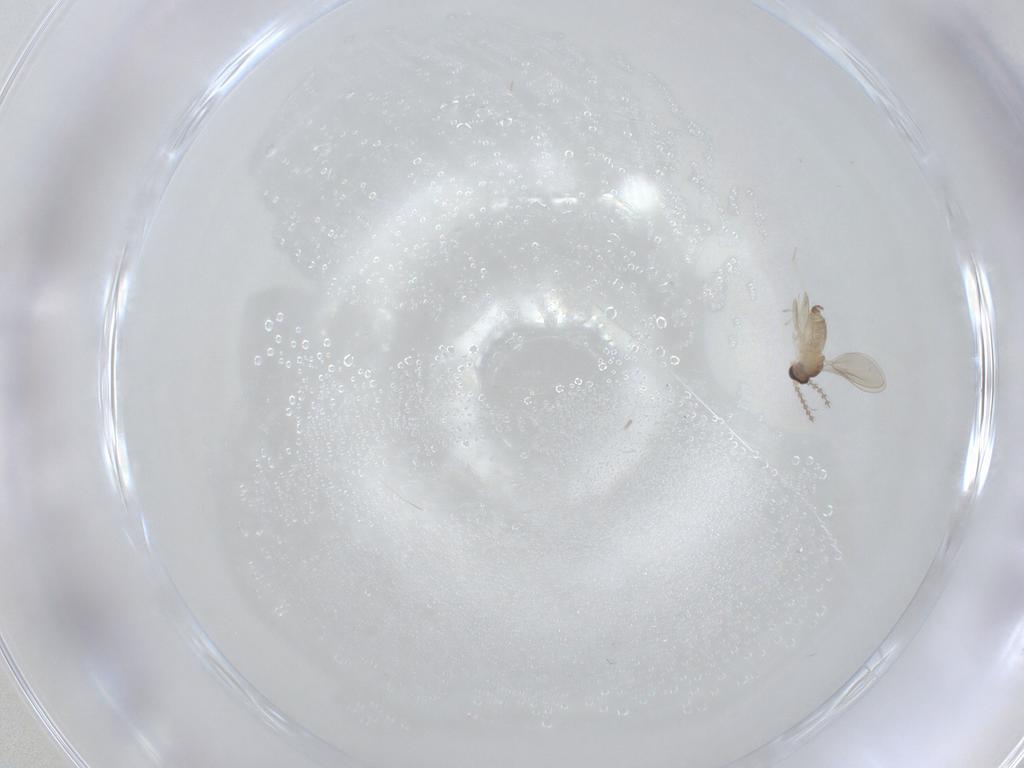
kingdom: Animalia
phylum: Arthropoda
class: Insecta
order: Diptera
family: Cecidomyiidae
